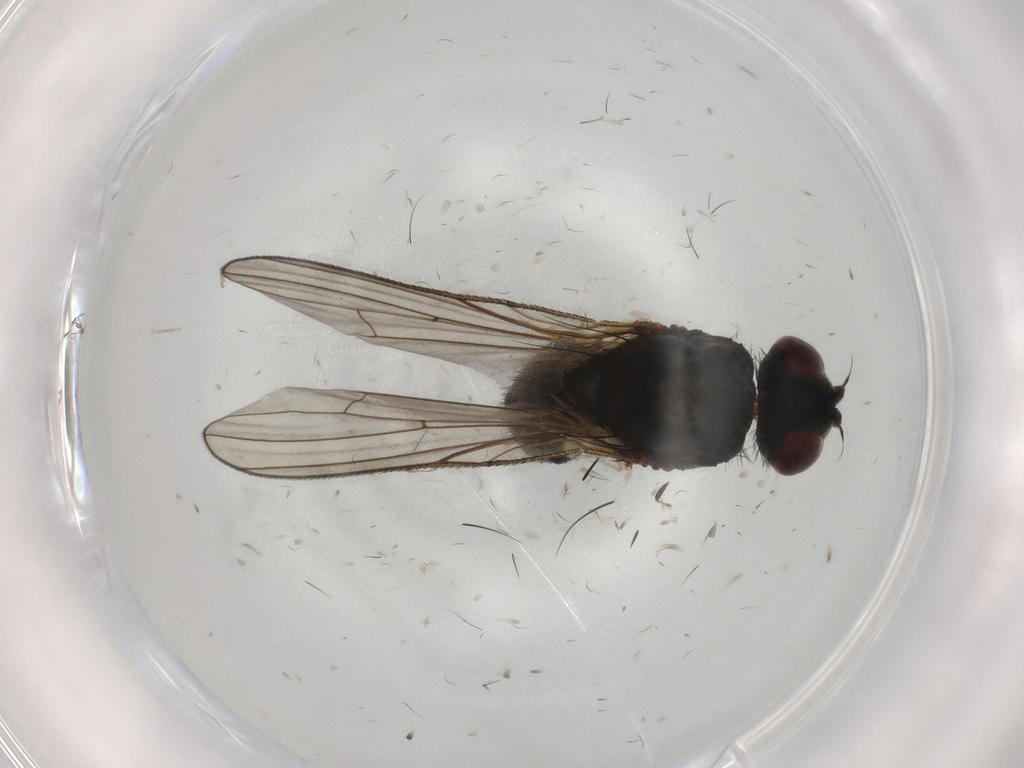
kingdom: Animalia
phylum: Arthropoda
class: Insecta
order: Diptera
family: Anthomyiidae
